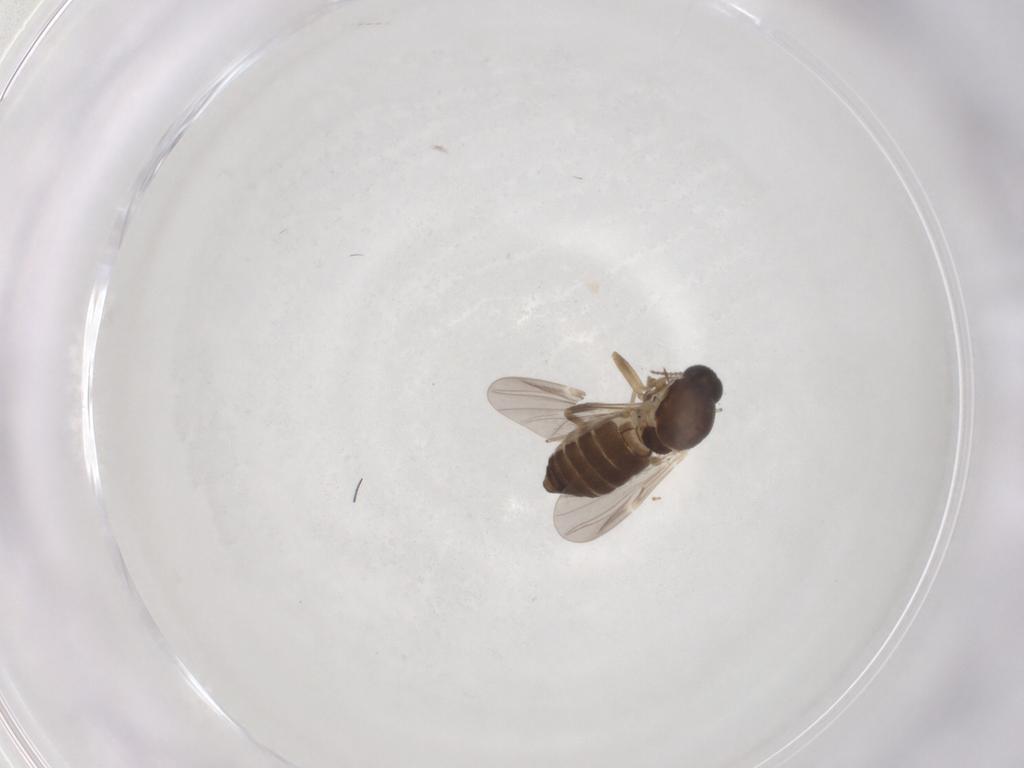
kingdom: Animalia
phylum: Arthropoda
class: Insecta
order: Diptera
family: Ceratopogonidae
